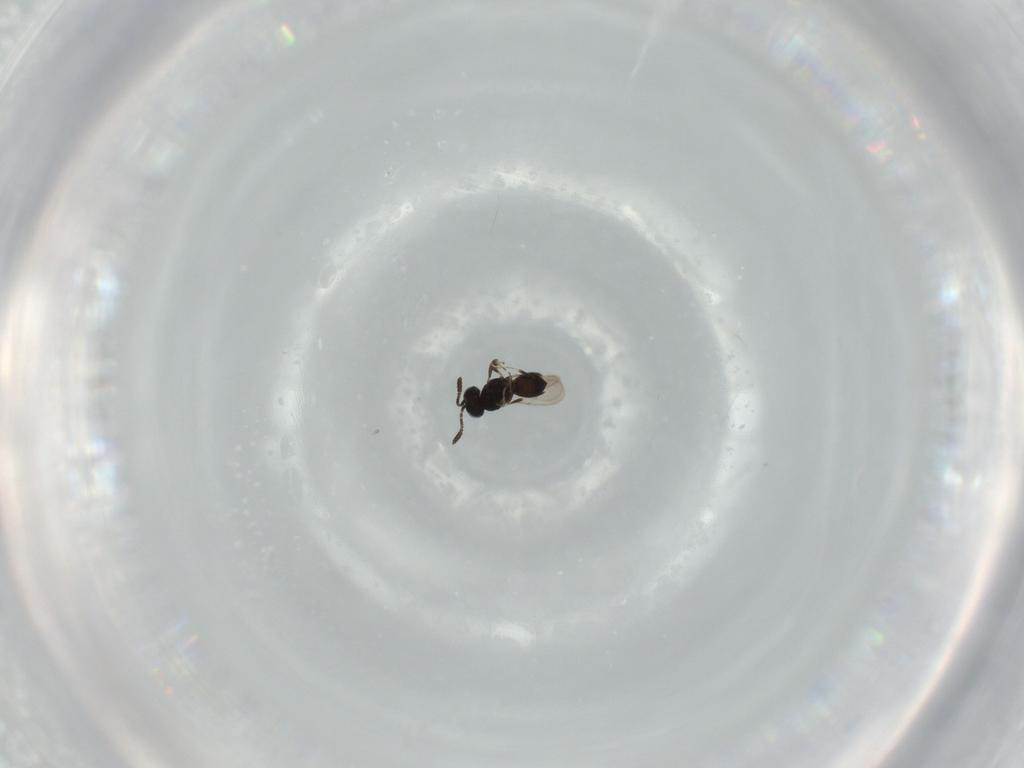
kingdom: Animalia
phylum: Arthropoda
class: Insecta
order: Hymenoptera
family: Scelionidae
